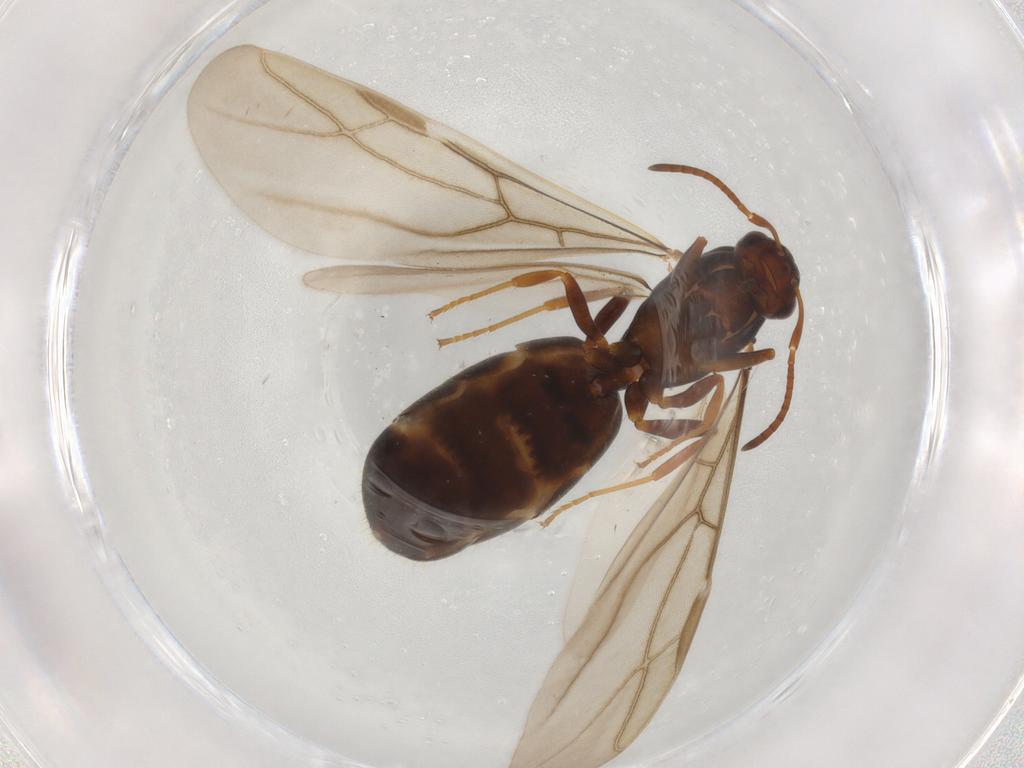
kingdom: Animalia
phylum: Arthropoda
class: Insecta
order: Hymenoptera
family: Formicidae
